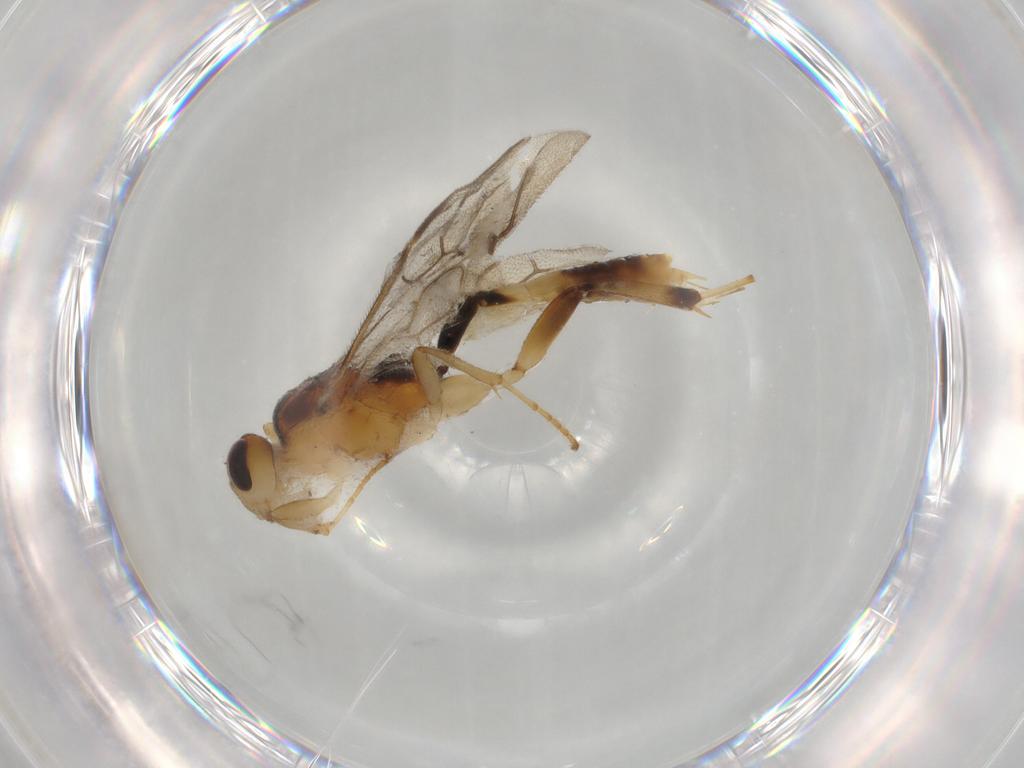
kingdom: Animalia
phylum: Arthropoda
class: Insecta
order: Hymenoptera
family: Ichneumonidae
